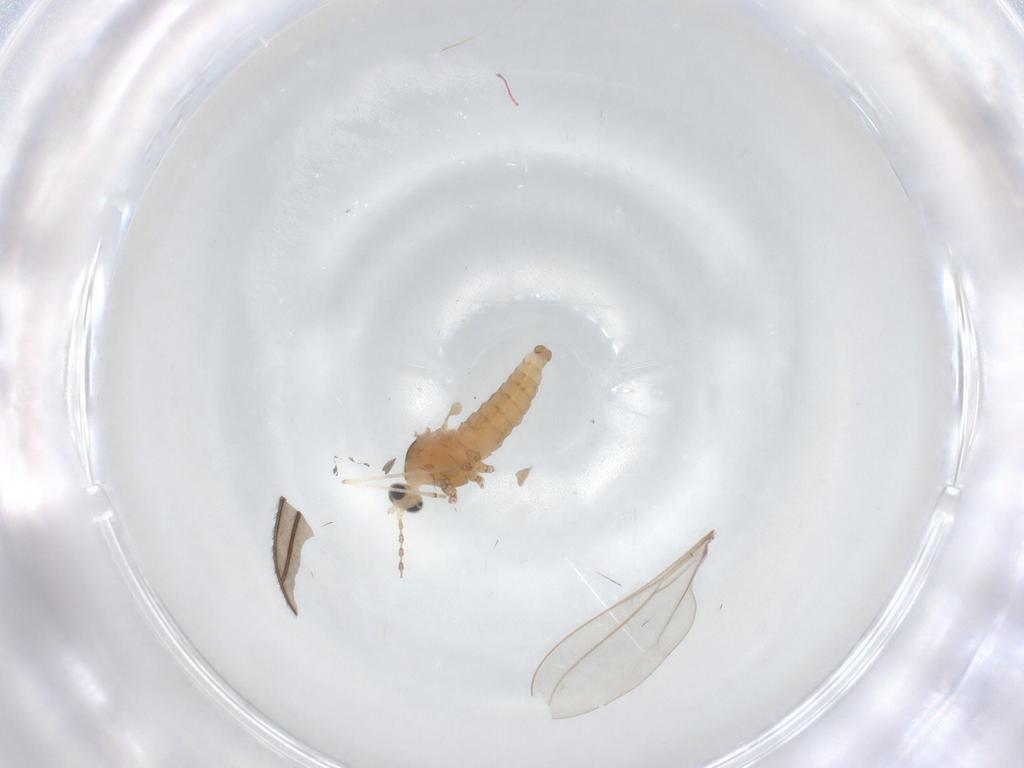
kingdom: Animalia
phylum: Arthropoda
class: Insecta
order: Diptera
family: Cecidomyiidae
